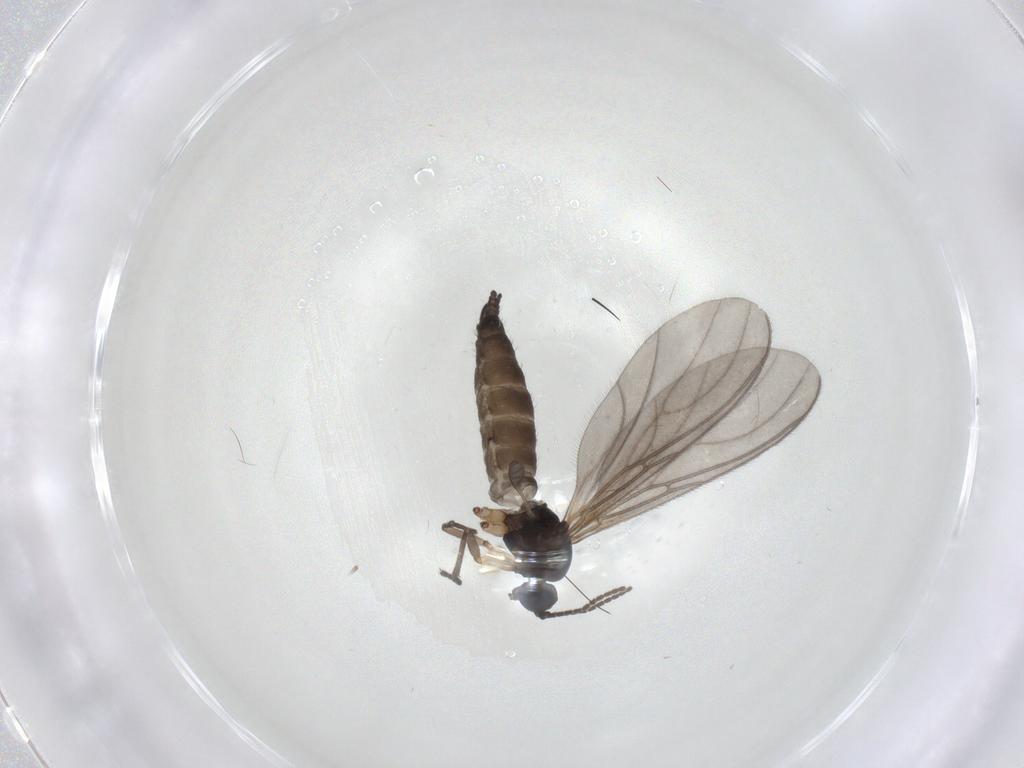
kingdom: Animalia
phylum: Arthropoda
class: Insecta
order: Diptera
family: Sciaridae
